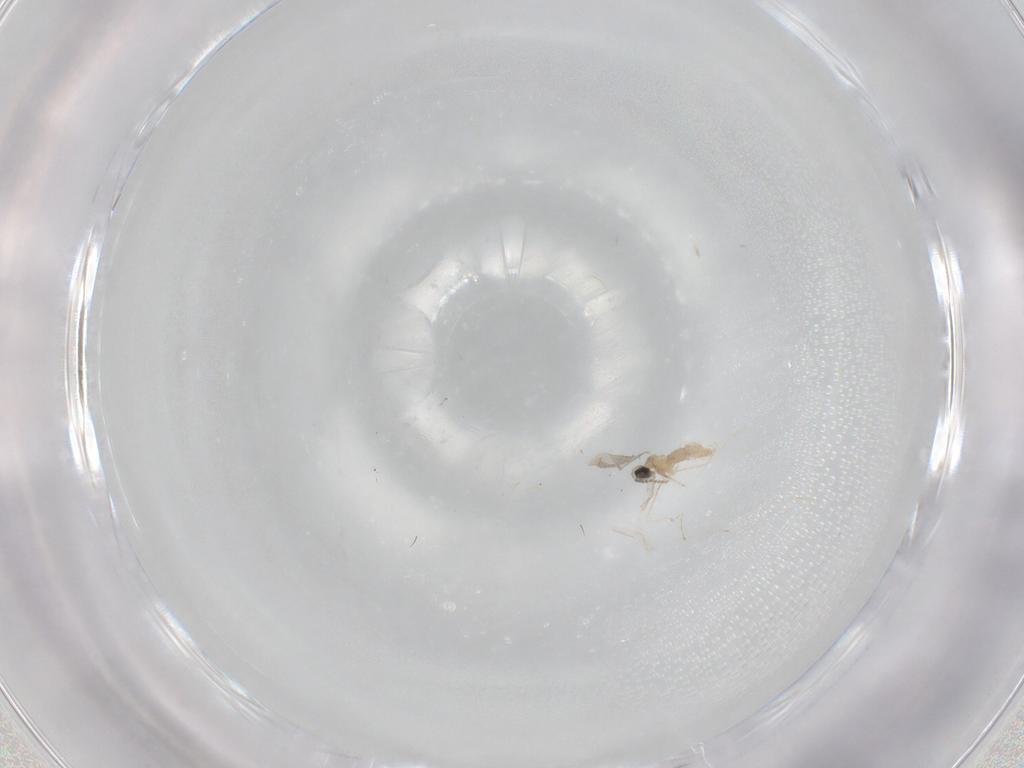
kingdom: Animalia
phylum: Arthropoda
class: Insecta
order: Diptera
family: Cecidomyiidae
